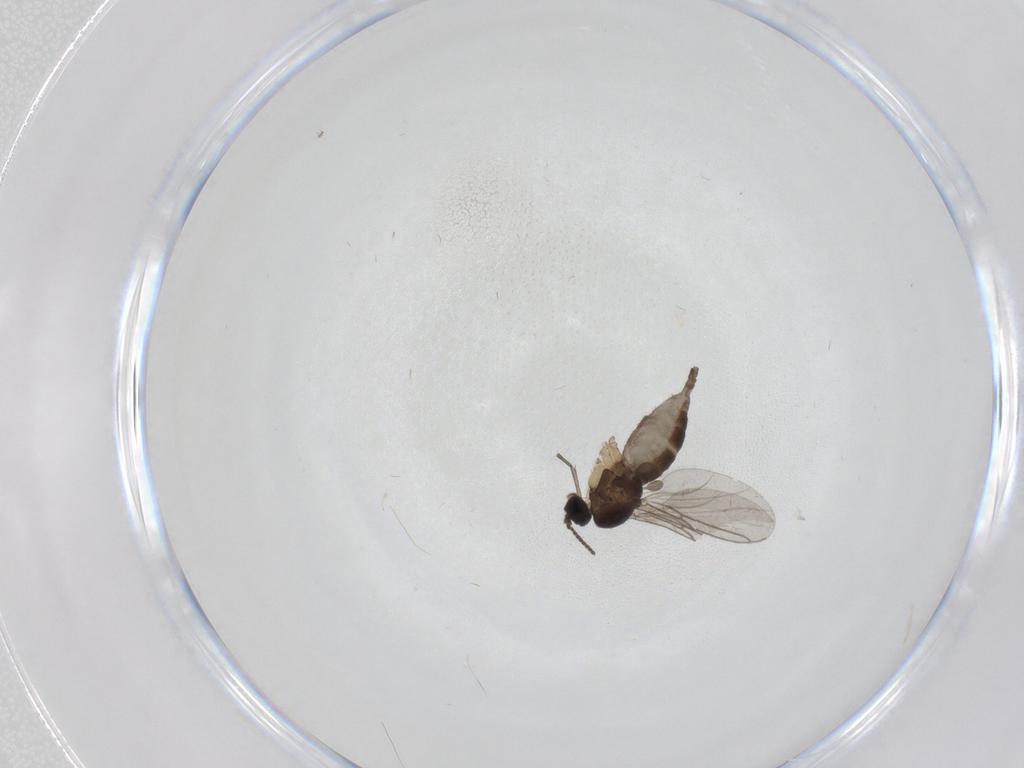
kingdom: Animalia
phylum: Arthropoda
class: Insecta
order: Diptera
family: Sciaridae
